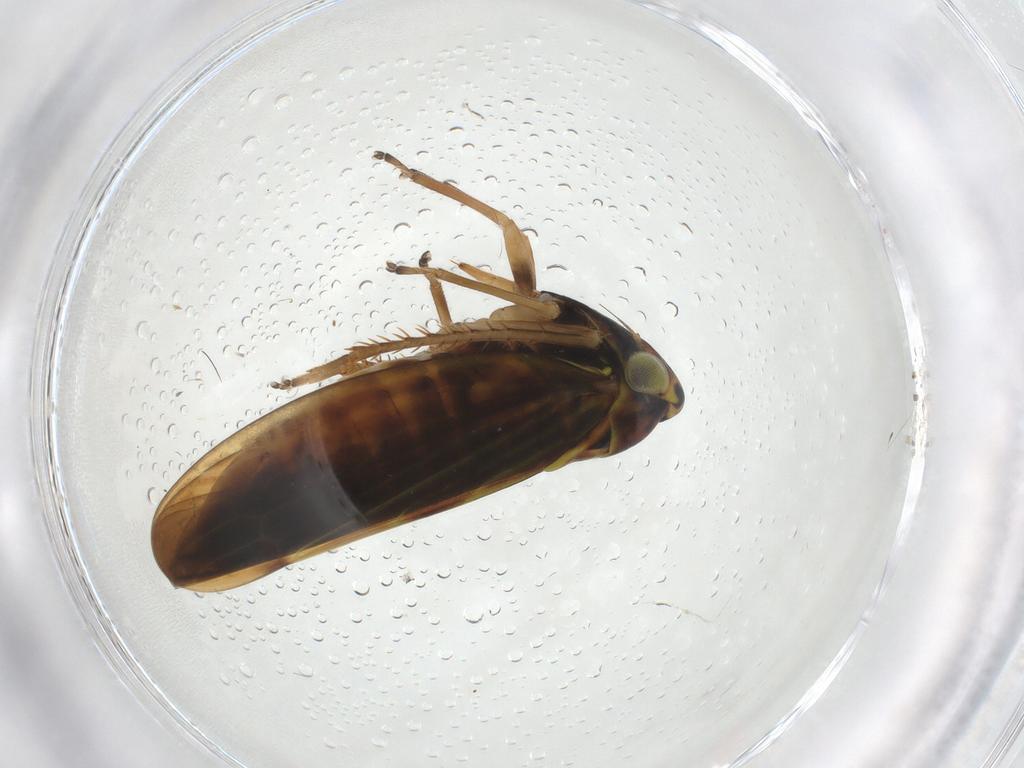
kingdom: Animalia
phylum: Arthropoda
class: Insecta
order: Hemiptera
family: Cicadellidae
